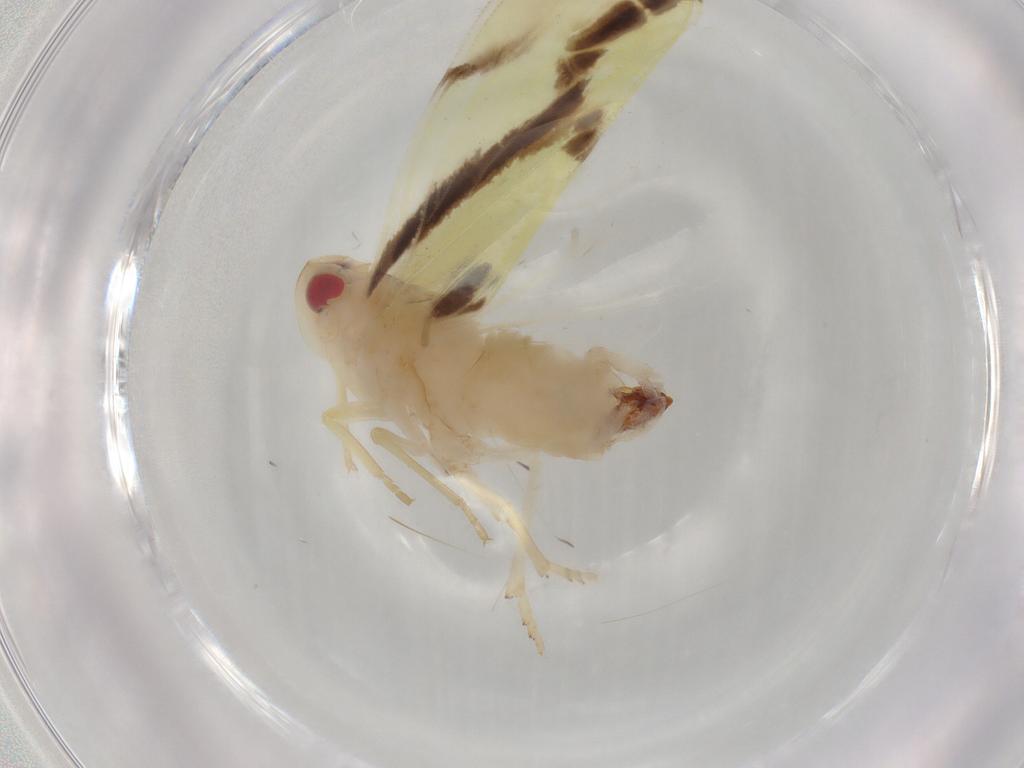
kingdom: Animalia
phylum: Arthropoda
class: Insecta
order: Hemiptera
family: Derbidae
